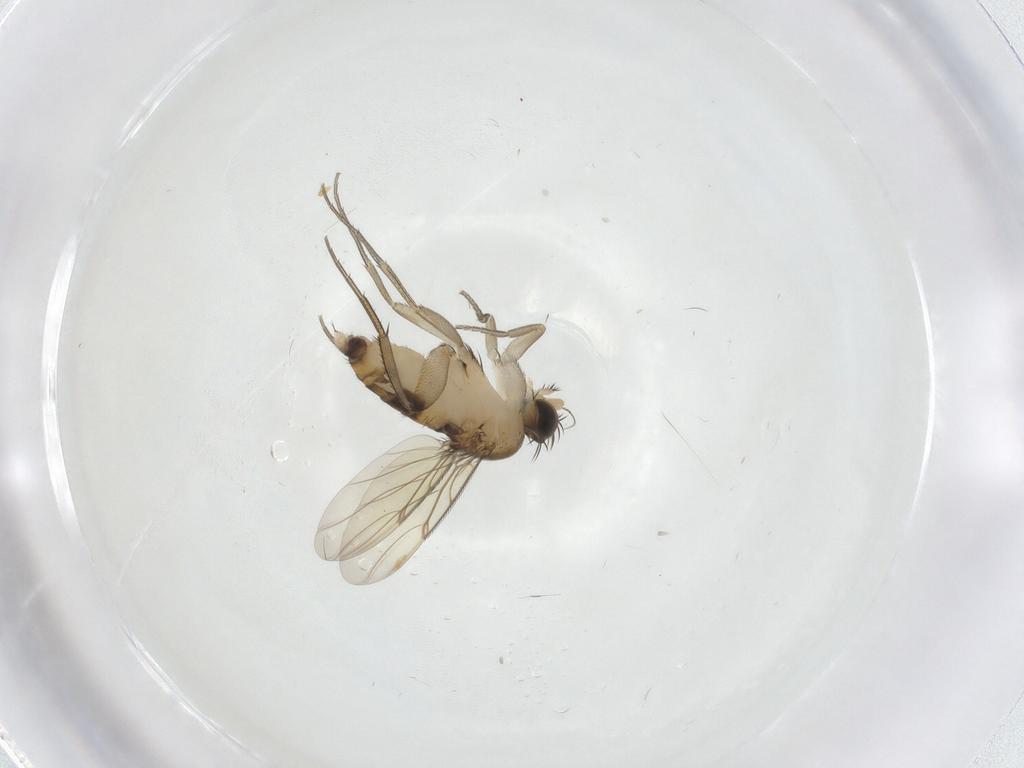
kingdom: Animalia
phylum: Arthropoda
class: Insecta
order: Diptera
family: Phoridae
